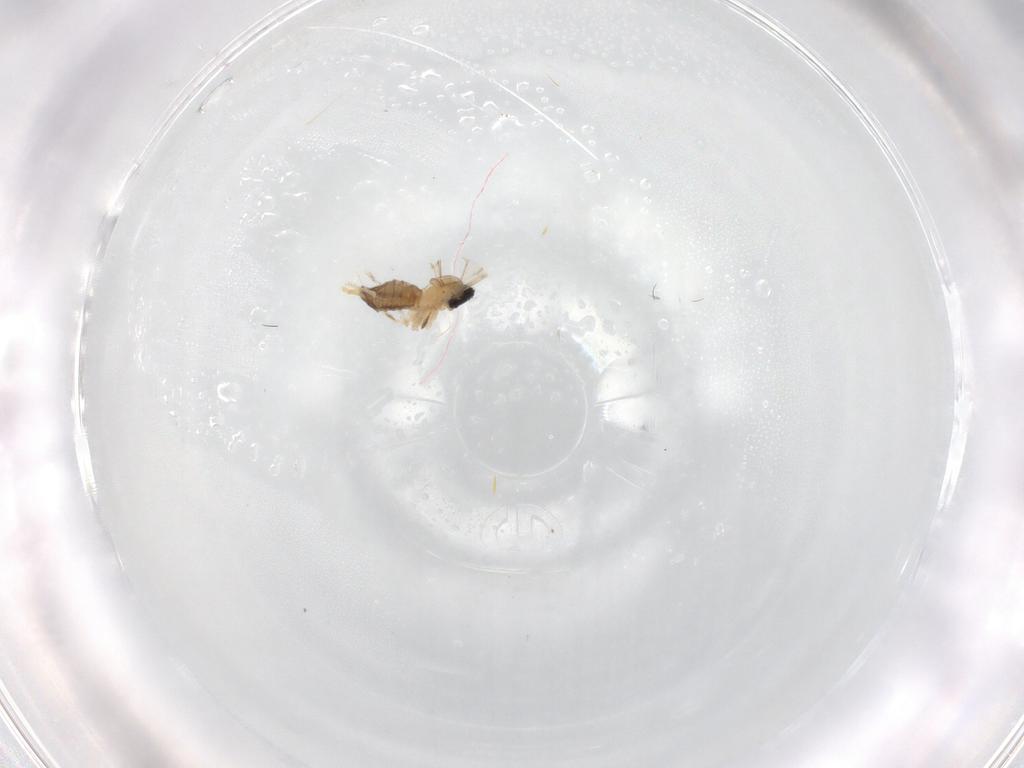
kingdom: Animalia
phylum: Arthropoda
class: Insecta
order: Diptera
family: Cecidomyiidae
